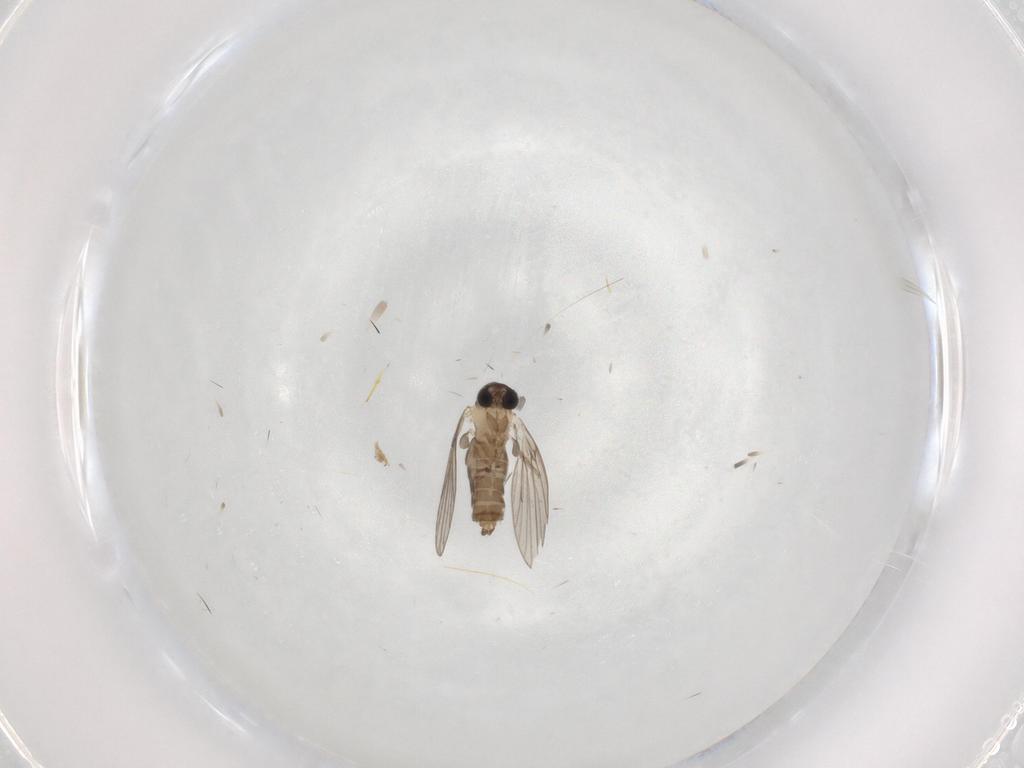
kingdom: Animalia
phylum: Arthropoda
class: Insecta
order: Diptera
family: Psychodidae
